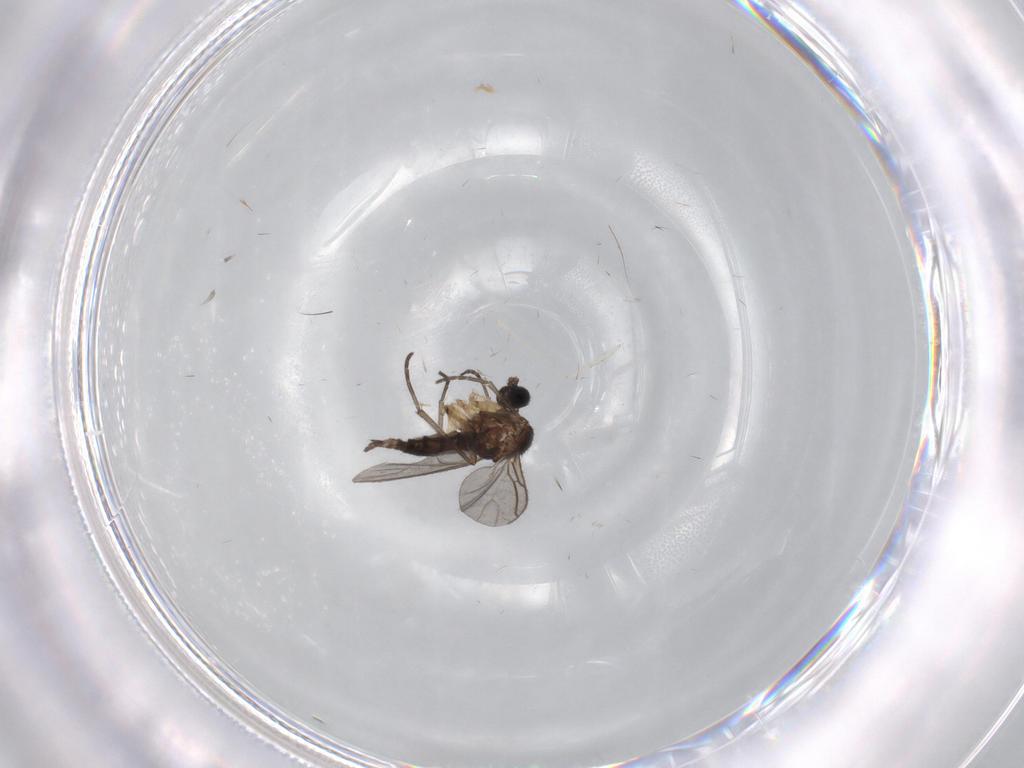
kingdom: Animalia
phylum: Arthropoda
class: Insecta
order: Diptera
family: Sciaridae
